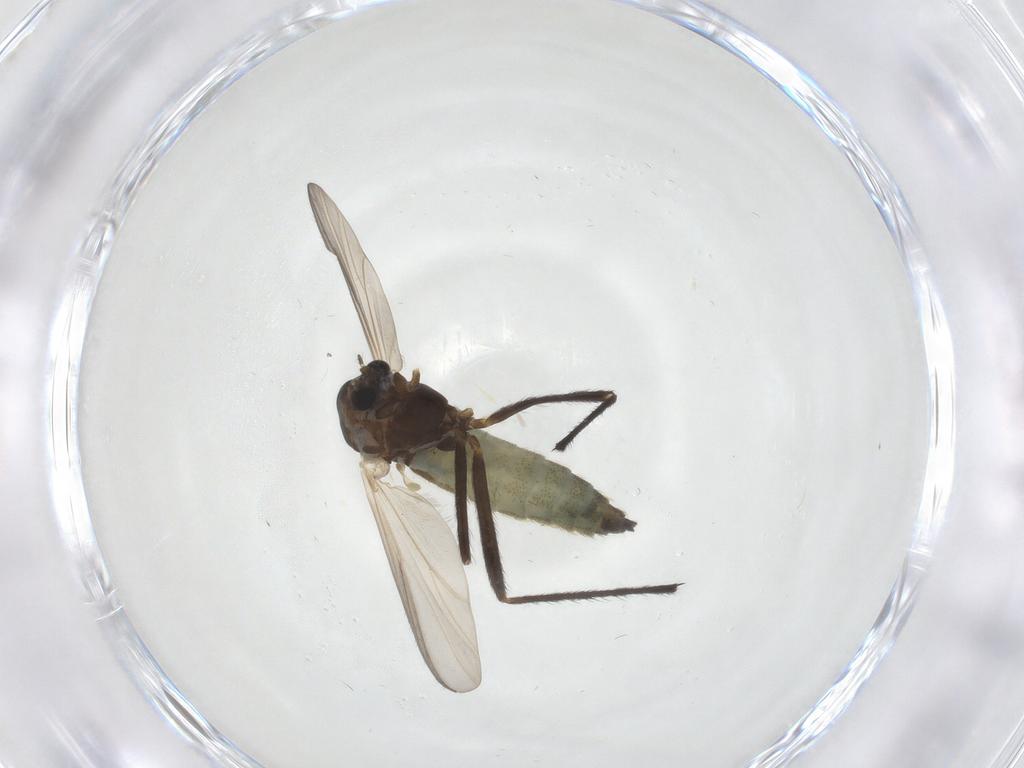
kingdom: Animalia
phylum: Arthropoda
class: Insecta
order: Diptera
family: Chironomidae
